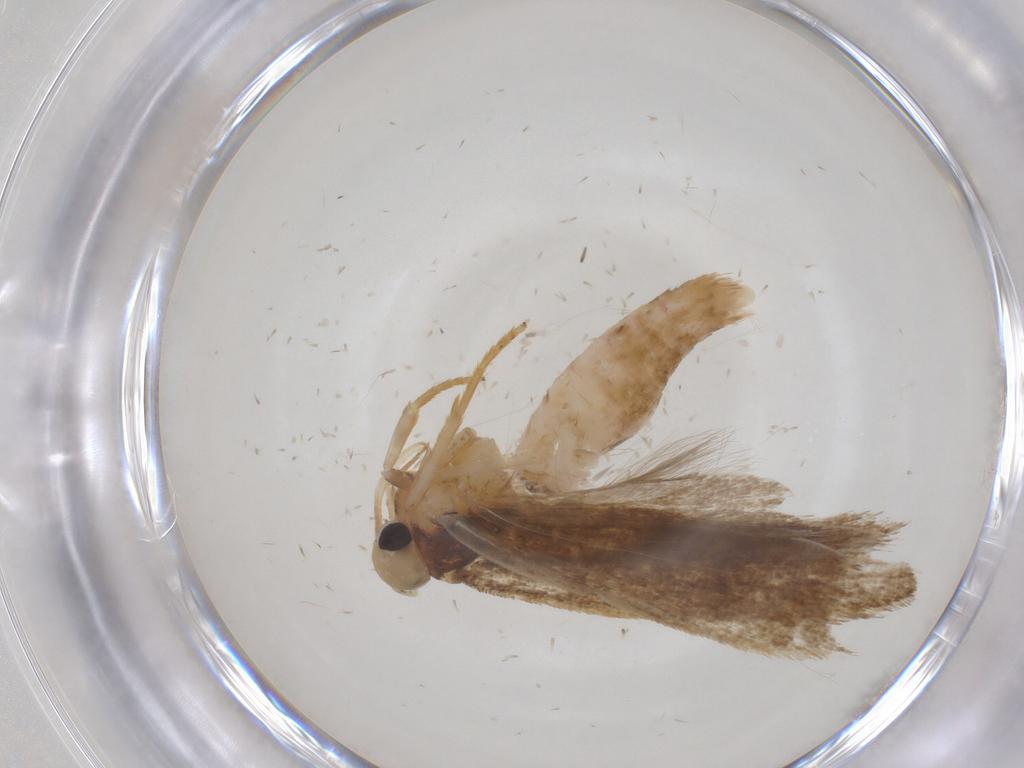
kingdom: Animalia
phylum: Arthropoda
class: Insecta
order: Lepidoptera
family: Gelechiidae
